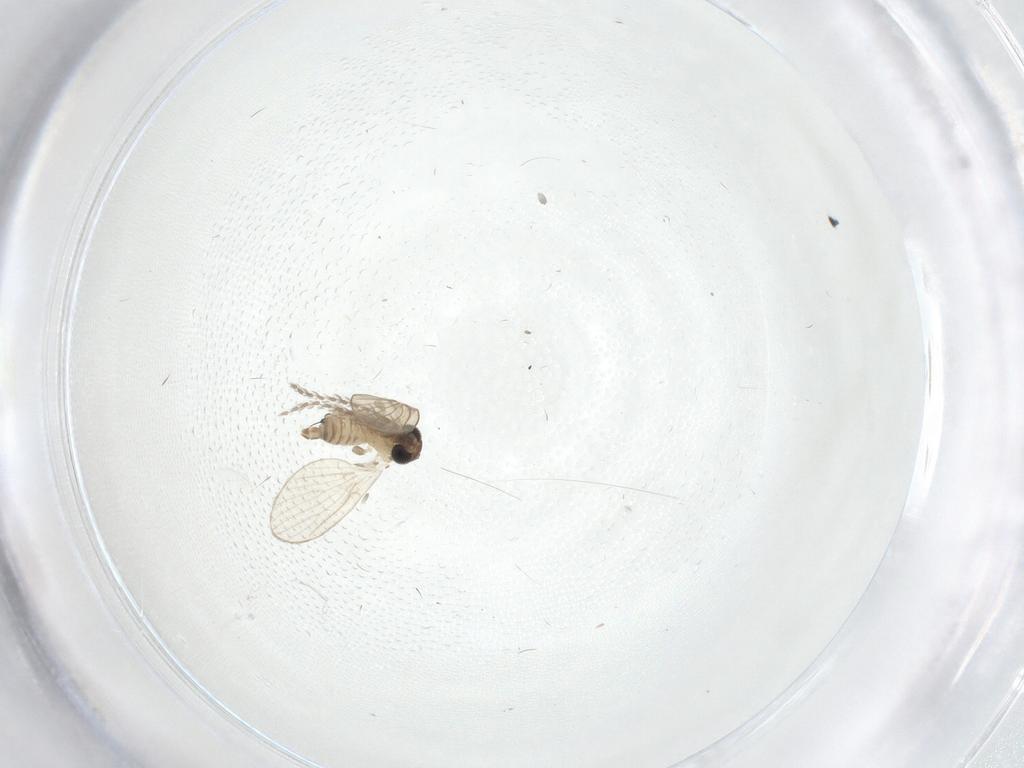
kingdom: Animalia
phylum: Arthropoda
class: Insecta
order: Diptera
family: Psychodidae
